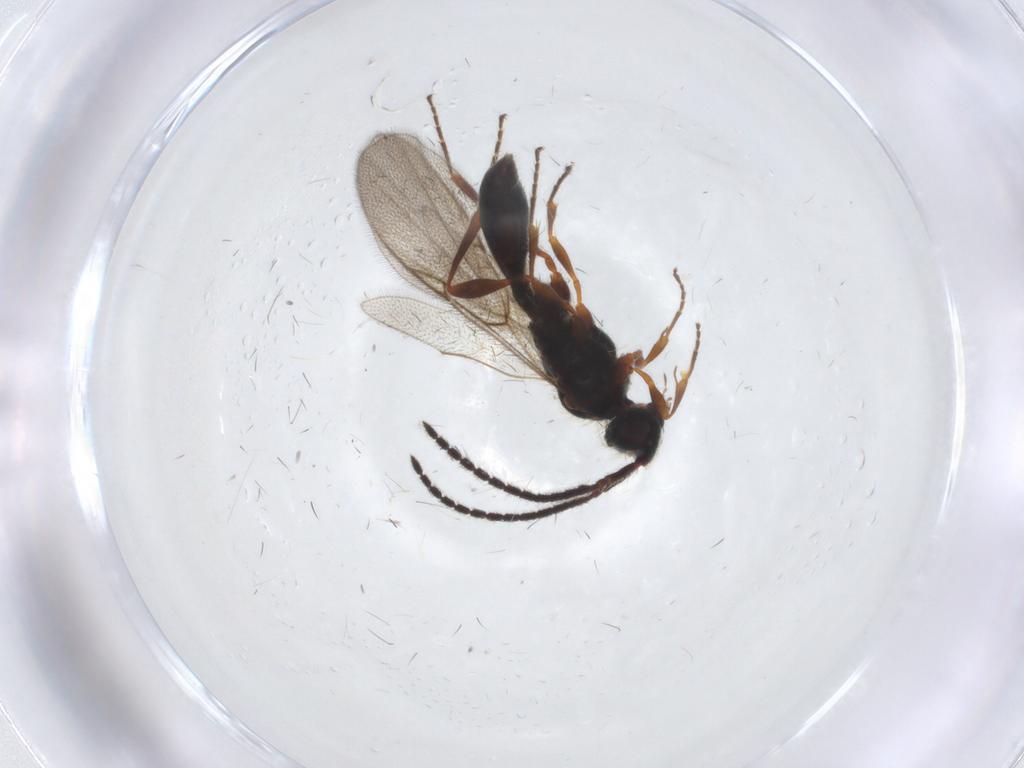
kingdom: Animalia
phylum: Arthropoda
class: Insecta
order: Hymenoptera
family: Diapriidae
